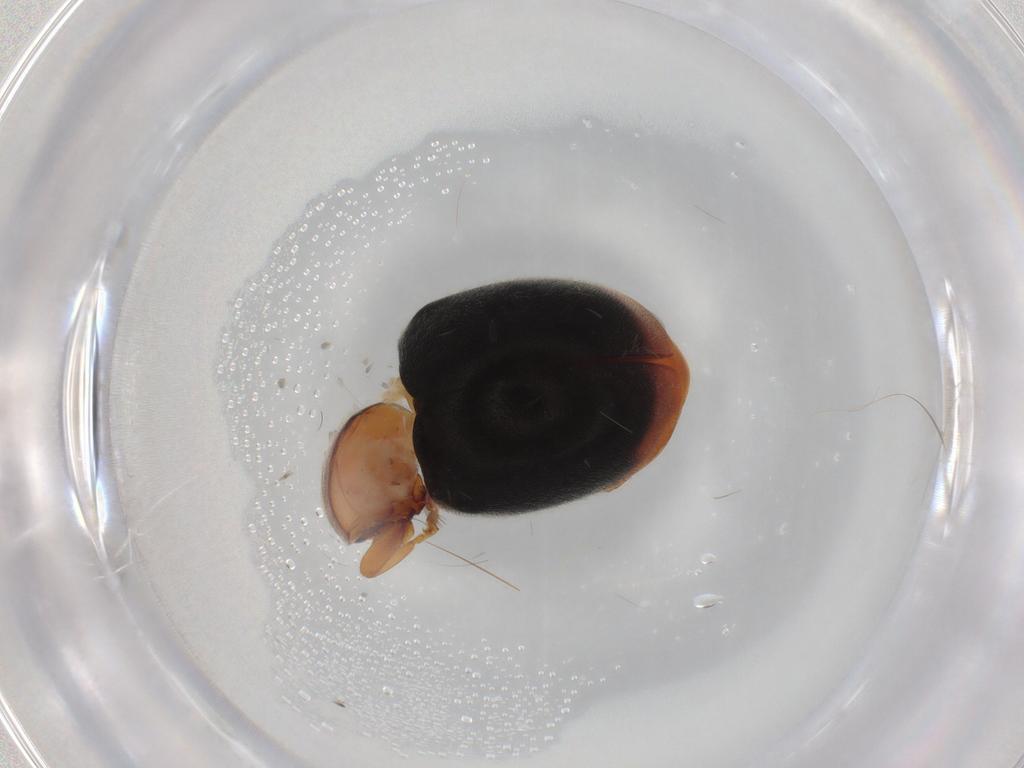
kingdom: Animalia
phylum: Arthropoda
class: Insecta
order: Coleoptera
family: Coccinellidae
